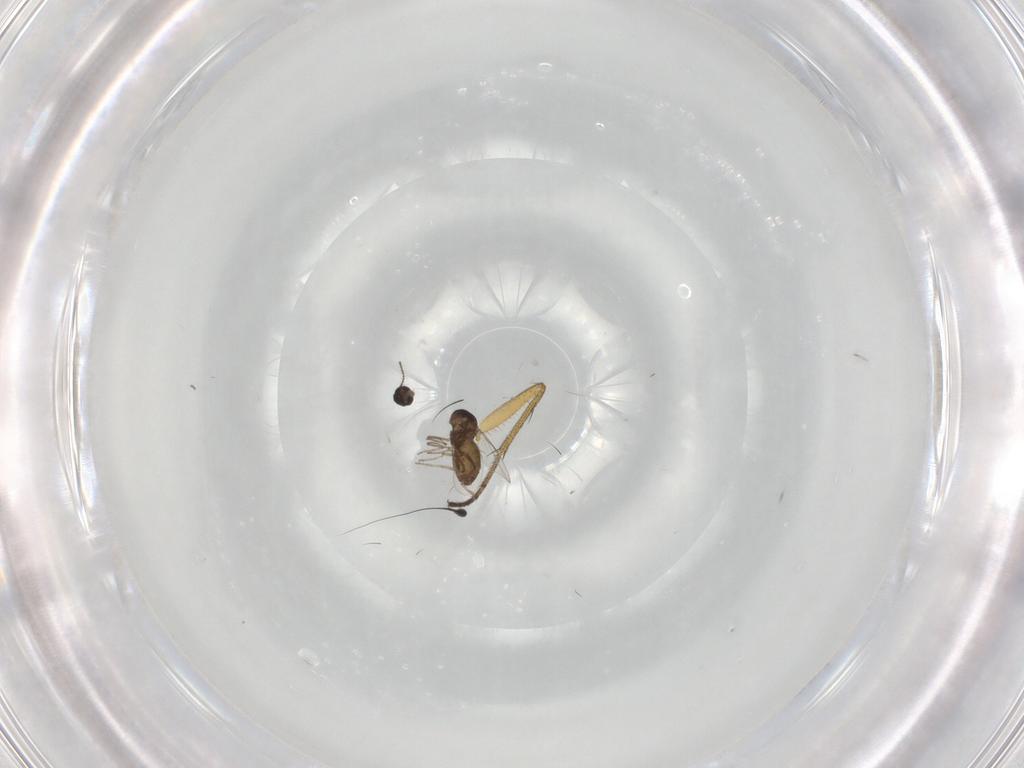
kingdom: Animalia
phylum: Arthropoda
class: Insecta
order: Diptera
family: Ceratopogonidae
